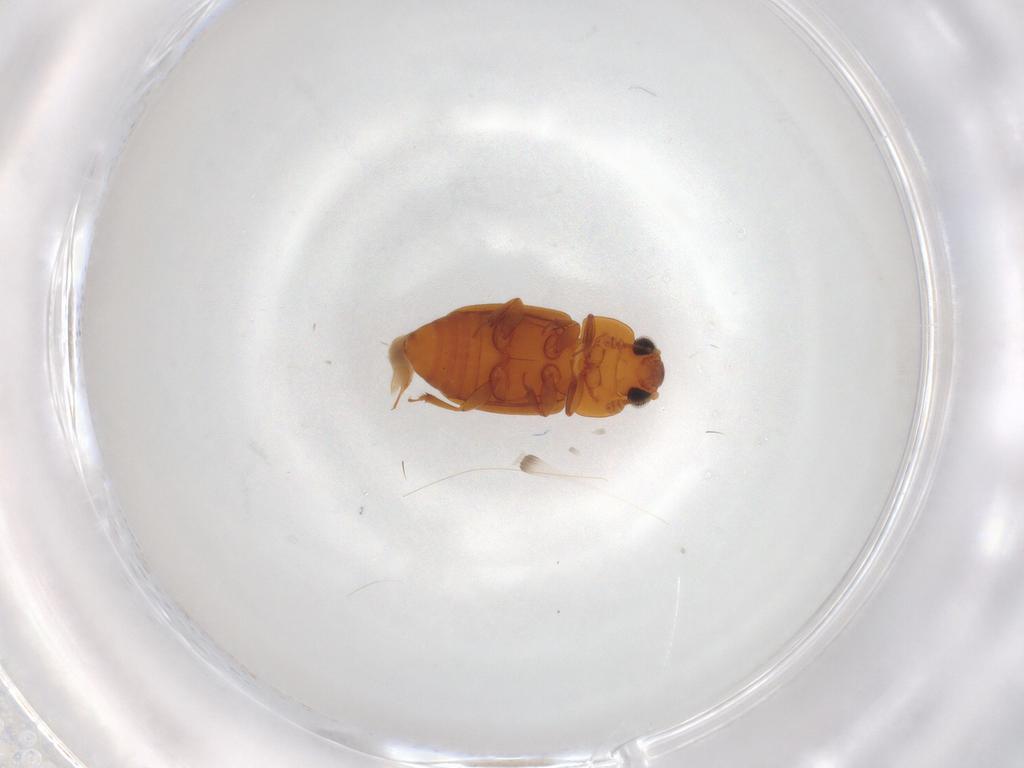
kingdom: Animalia
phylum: Arthropoda
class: Insecta
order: Coleoptera
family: Nitidulidae
